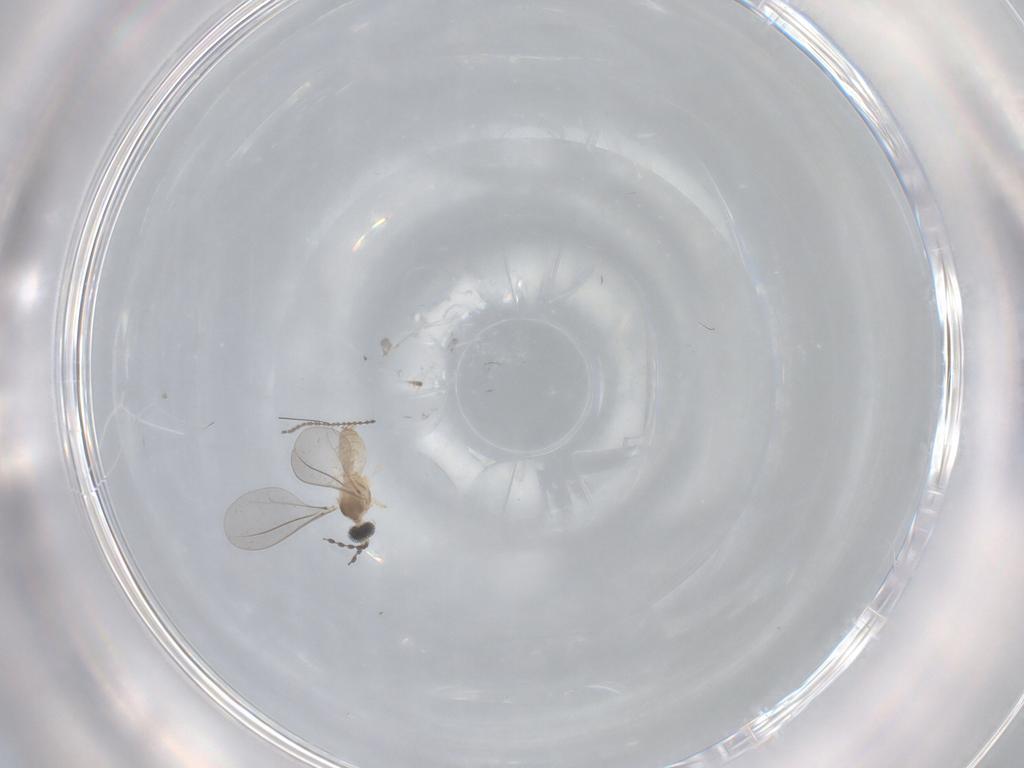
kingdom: Animalia
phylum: Arthropoda
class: Insecta
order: Diptera
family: Cecidomyiidae
